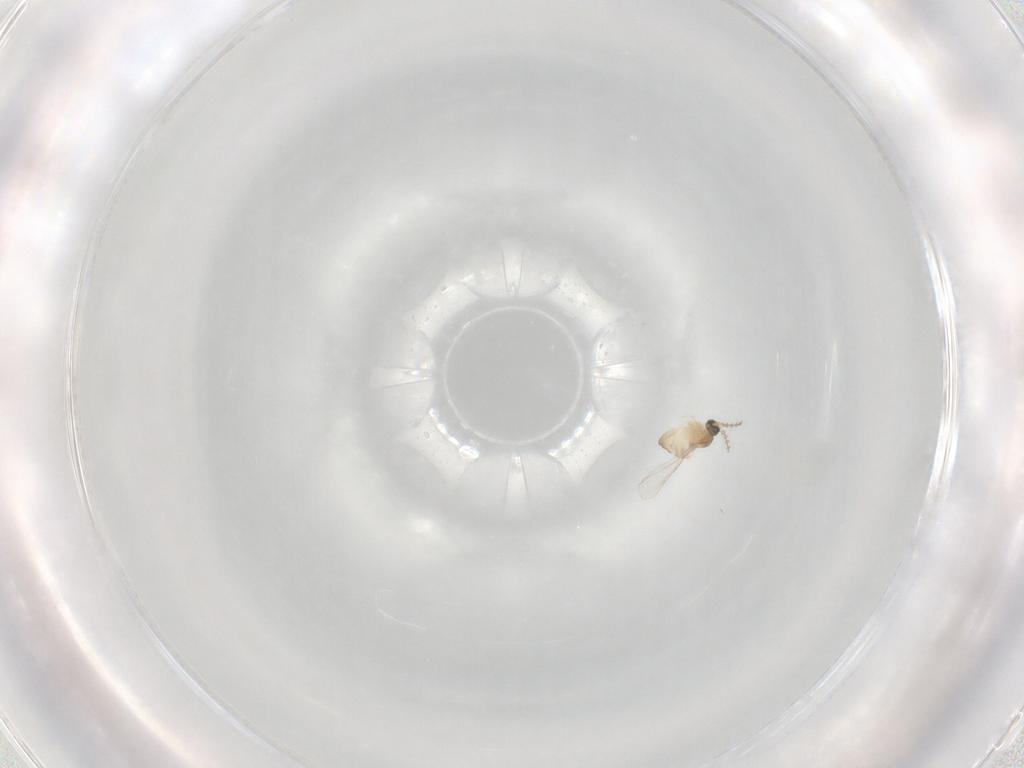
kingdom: Animalia
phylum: Arthropoda
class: Insecta
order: Diptera
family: Cecidomyiidae
